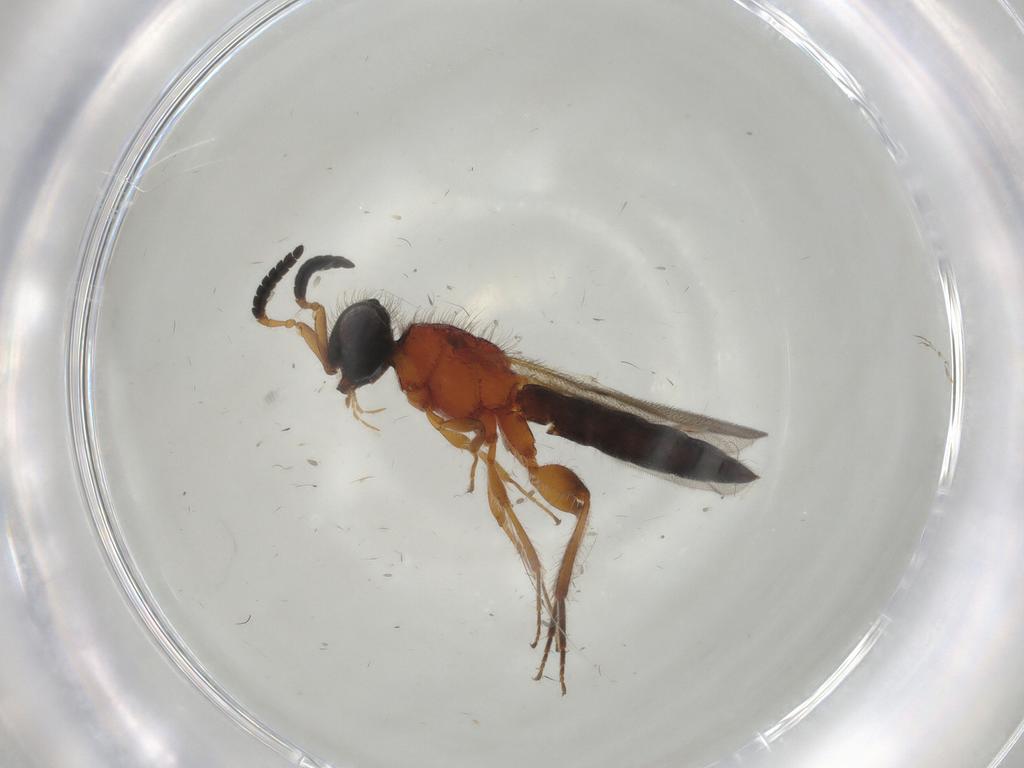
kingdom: Animalia
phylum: Arthropoda
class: Insecta
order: Hymenoptera
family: Scelionidae
